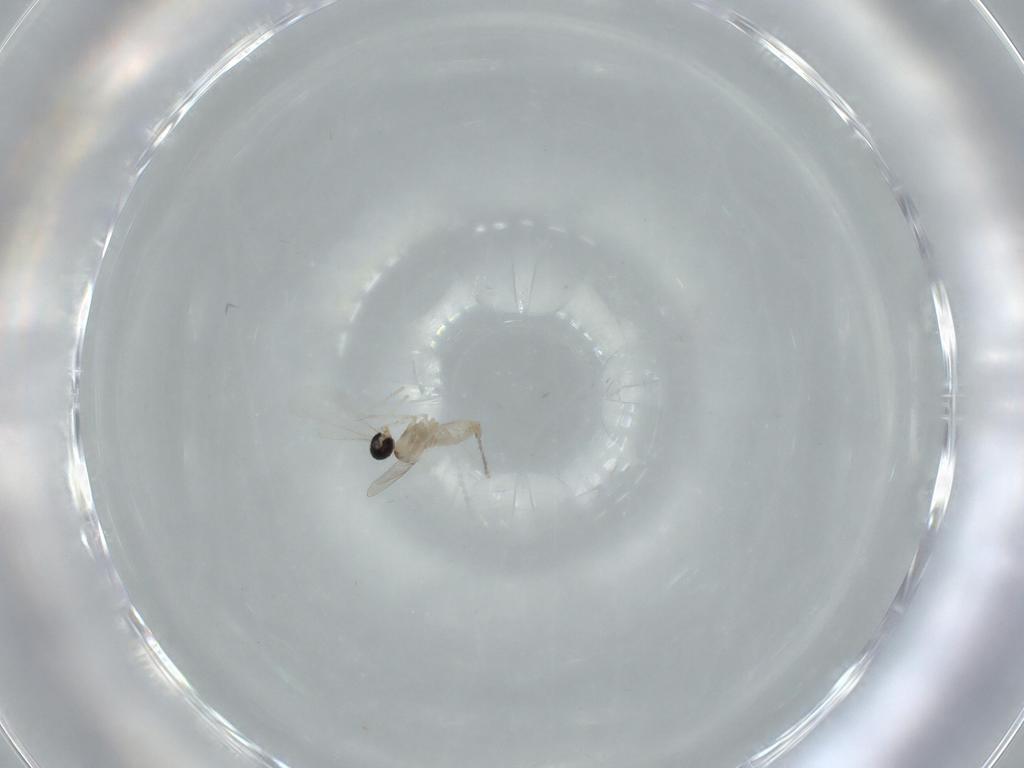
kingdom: Animalia
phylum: Arthropoda
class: Insecta
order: Diptera
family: Cecidomyiidae
